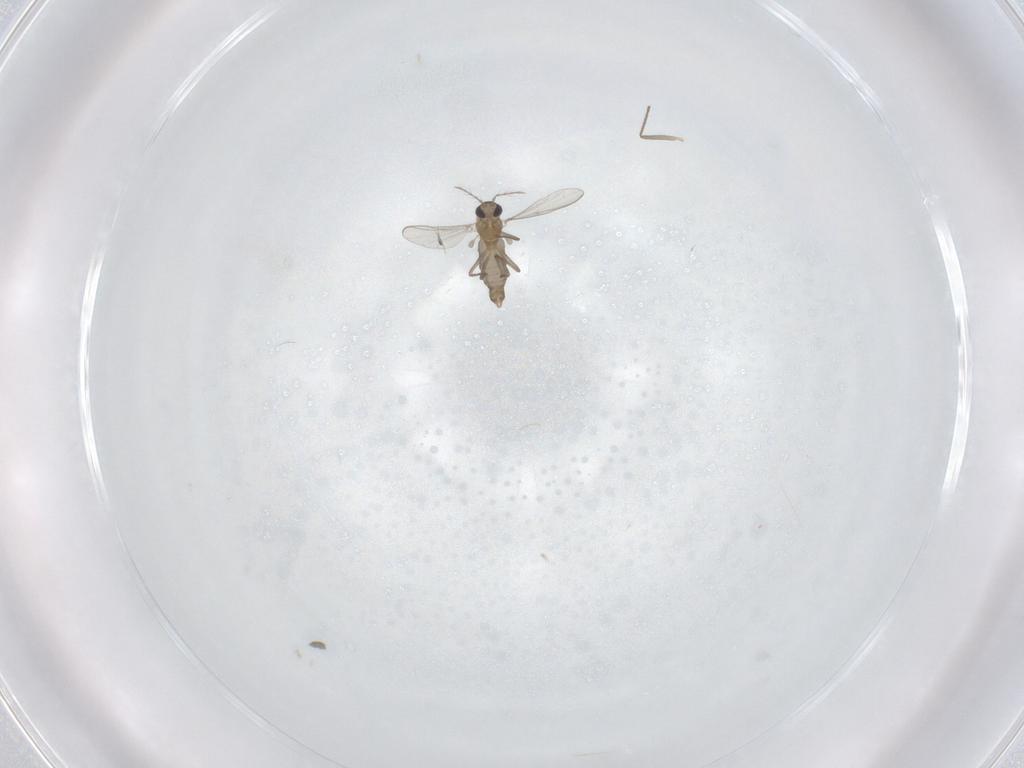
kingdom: Animalia
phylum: Arthropoda
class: Insecta
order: Diptera
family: Chironomidae
